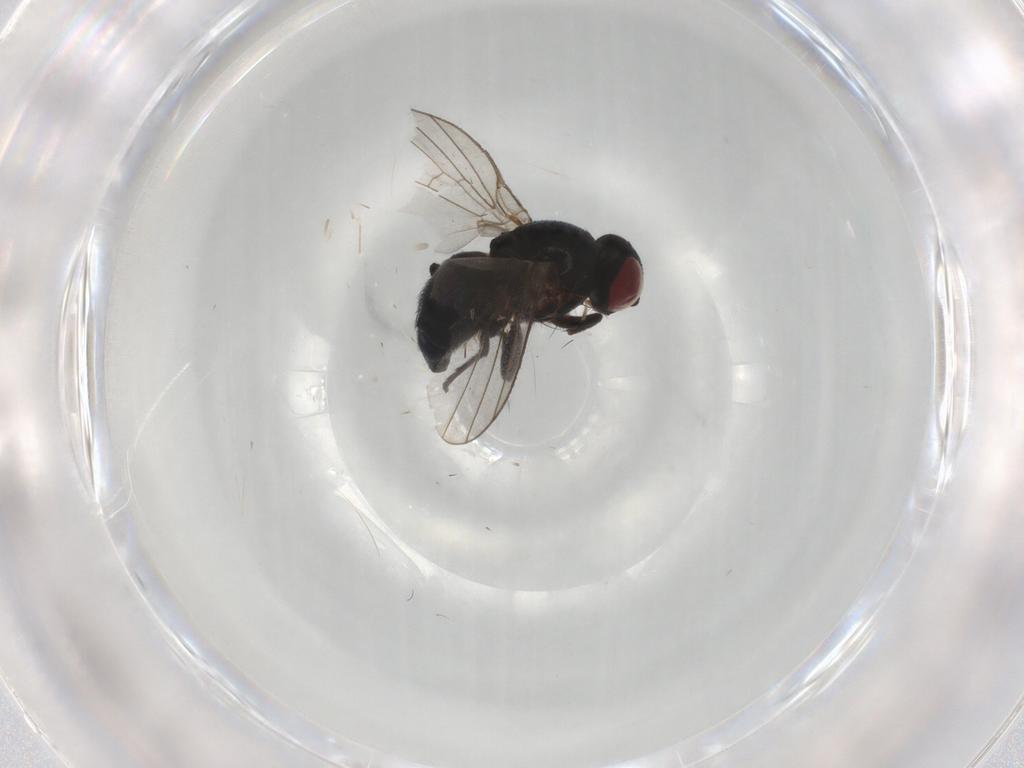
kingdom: Animalia
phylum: Arthropoda
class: Insecta
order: Diptera
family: Agromyzidae
